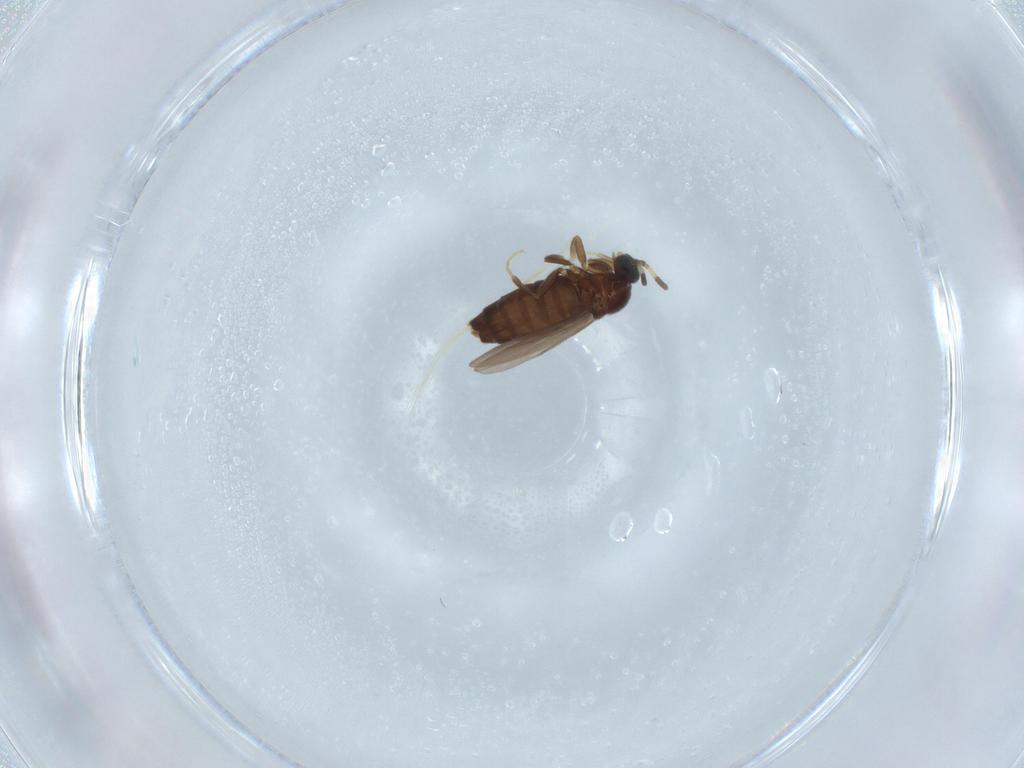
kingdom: Animalia
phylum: Arthropoda
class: Insecta
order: Diptera
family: Scatopsidae
